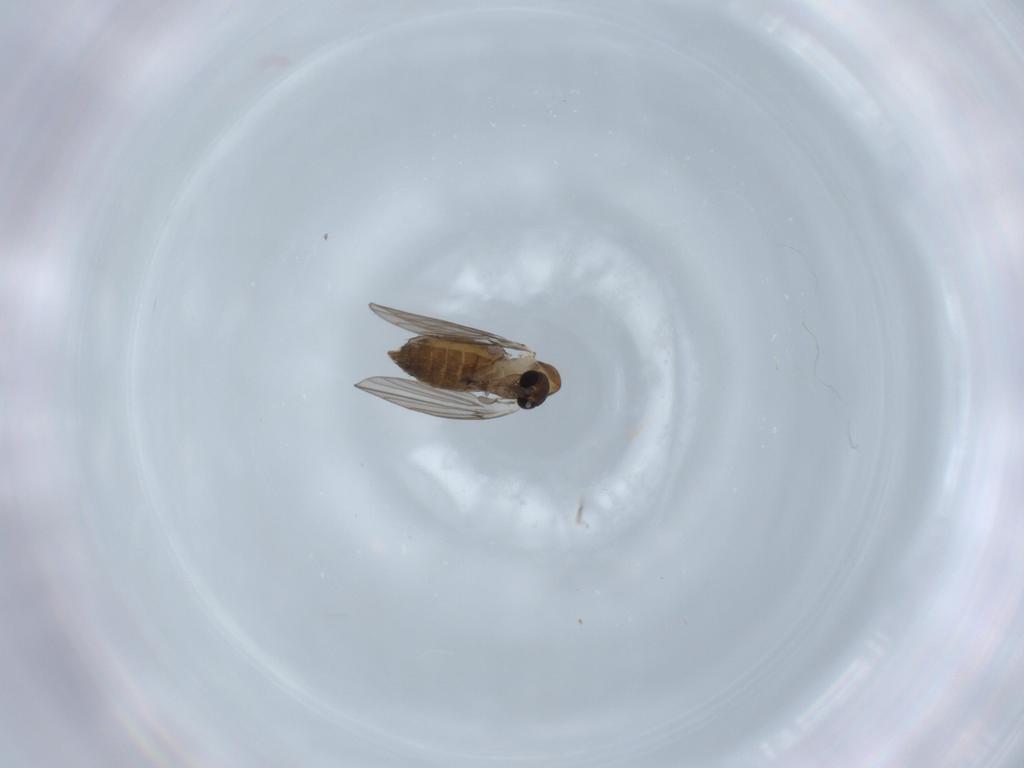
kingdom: Animalia
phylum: Arthropoda
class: Insecta
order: Diptera
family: Psychodidae
